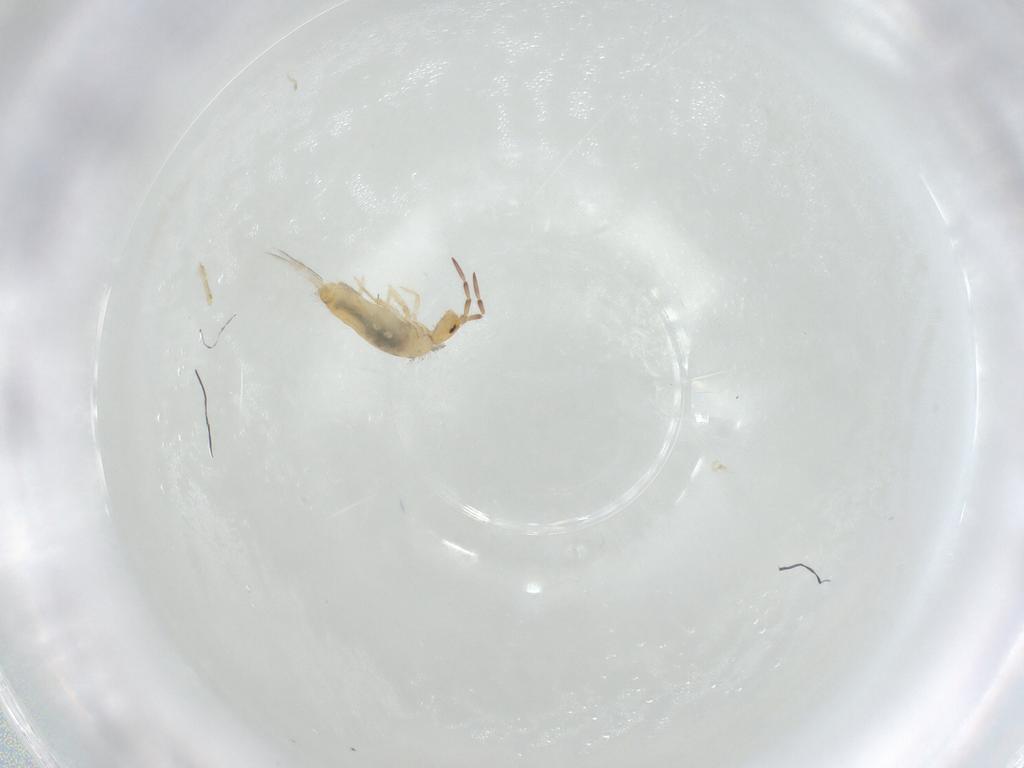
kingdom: Animalia
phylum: Arthropoda
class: Collembola
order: Entomobryomorpha
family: Entomobryidae
